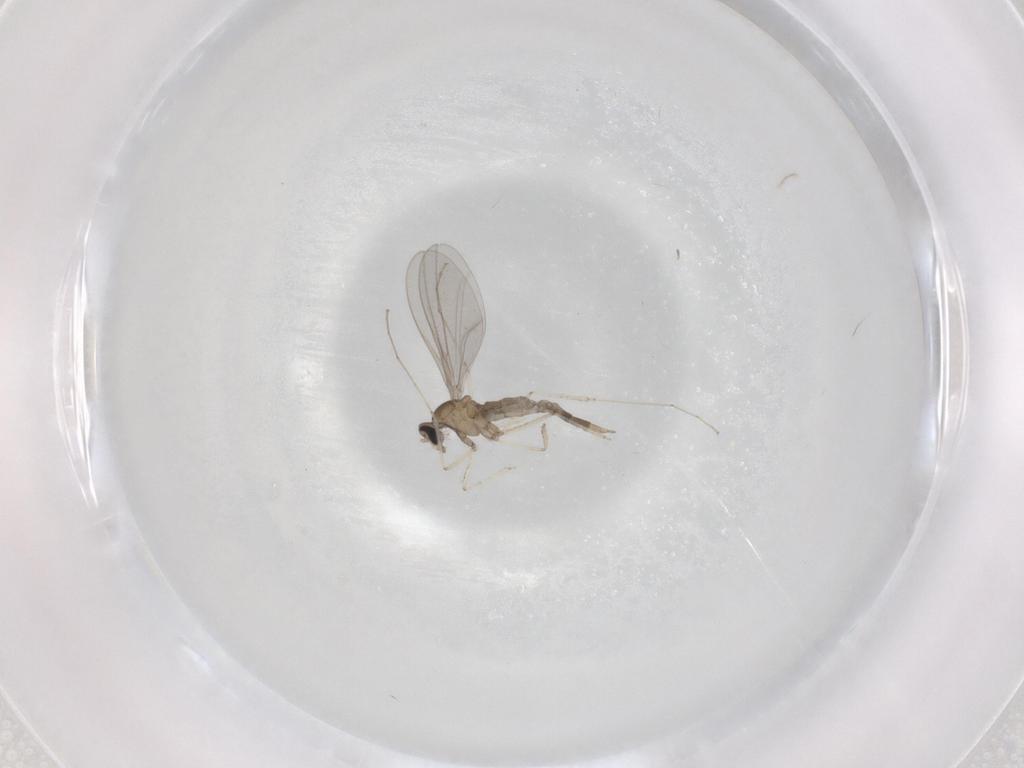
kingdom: Animalia
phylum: Arthropoda
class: Insecta
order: Diptera
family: Cecidomyiidae
